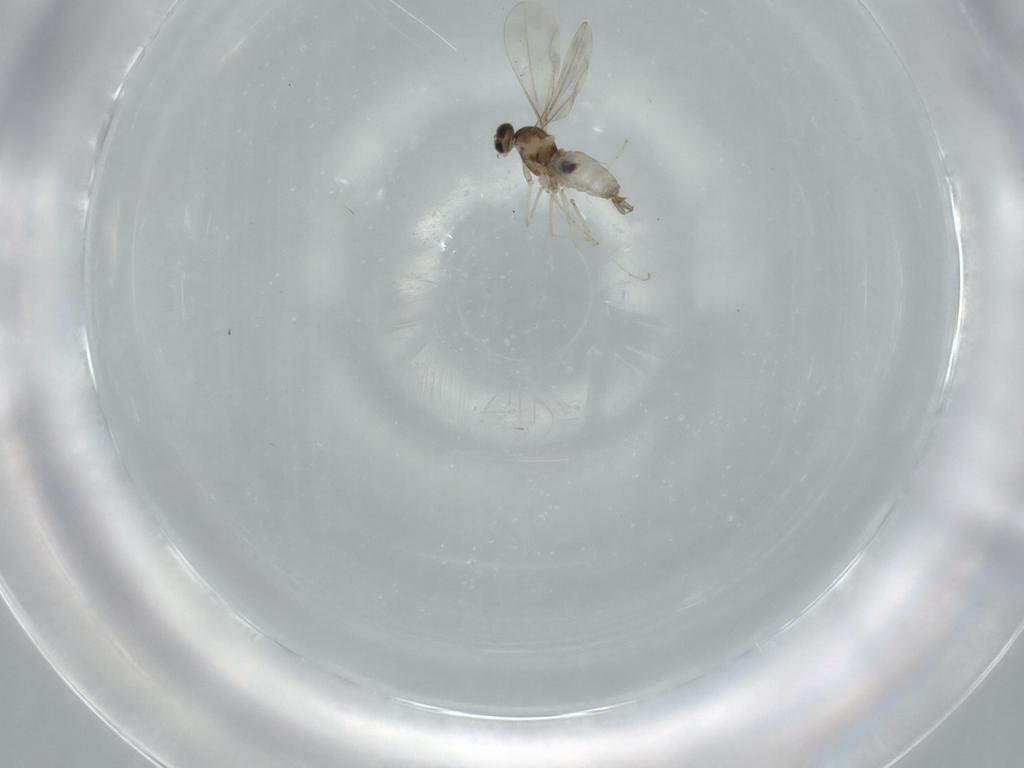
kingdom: Animalia
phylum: Arthropoda
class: Insecta
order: Diptera
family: Cecidomyiidae
